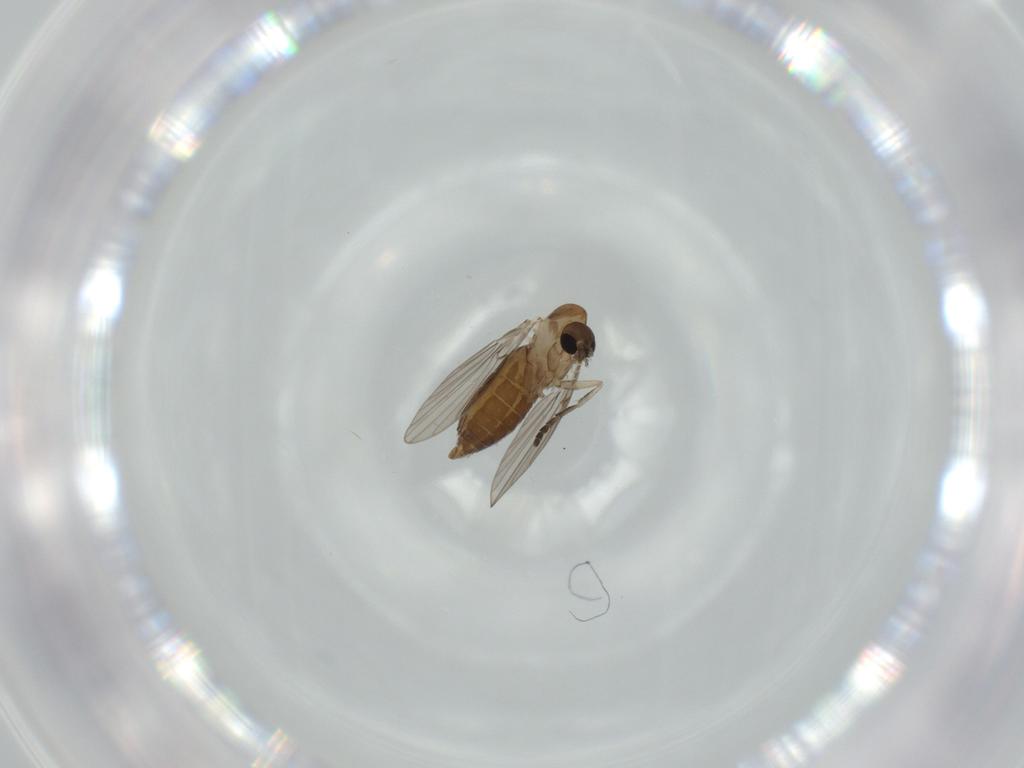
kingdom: Animalia
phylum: Arthropoda
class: Insecta
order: Diptera
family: Psychodidae
